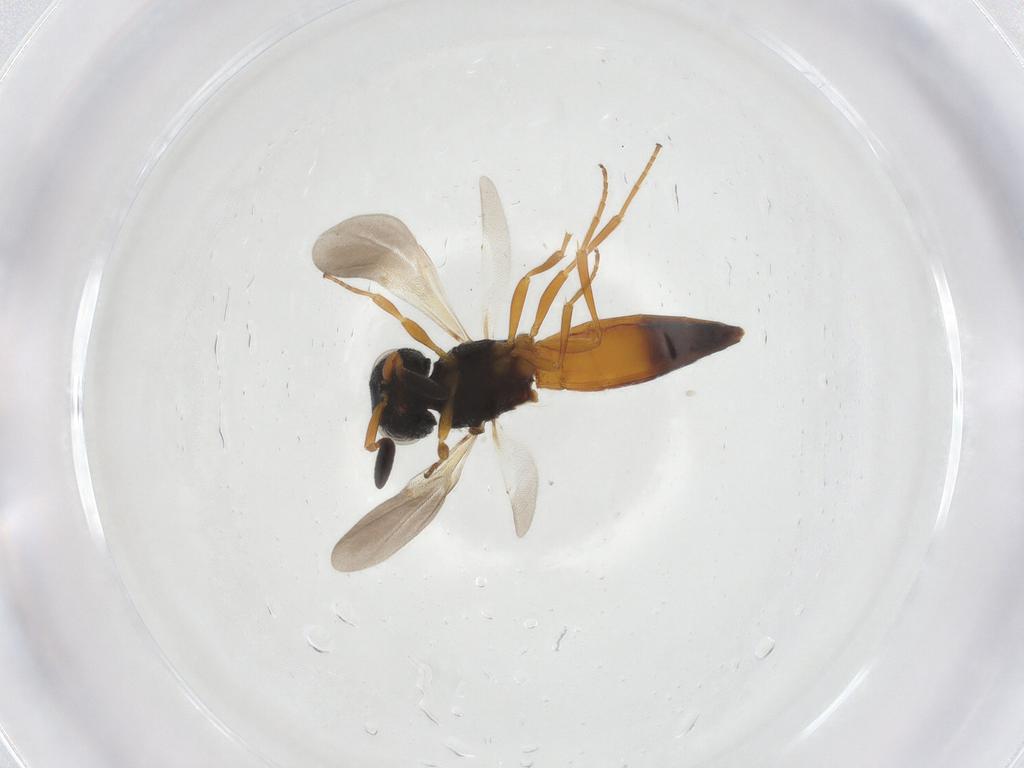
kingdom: Animalia
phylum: Arthropoda
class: Insecta
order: Hymenoptera
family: Scelionidae
